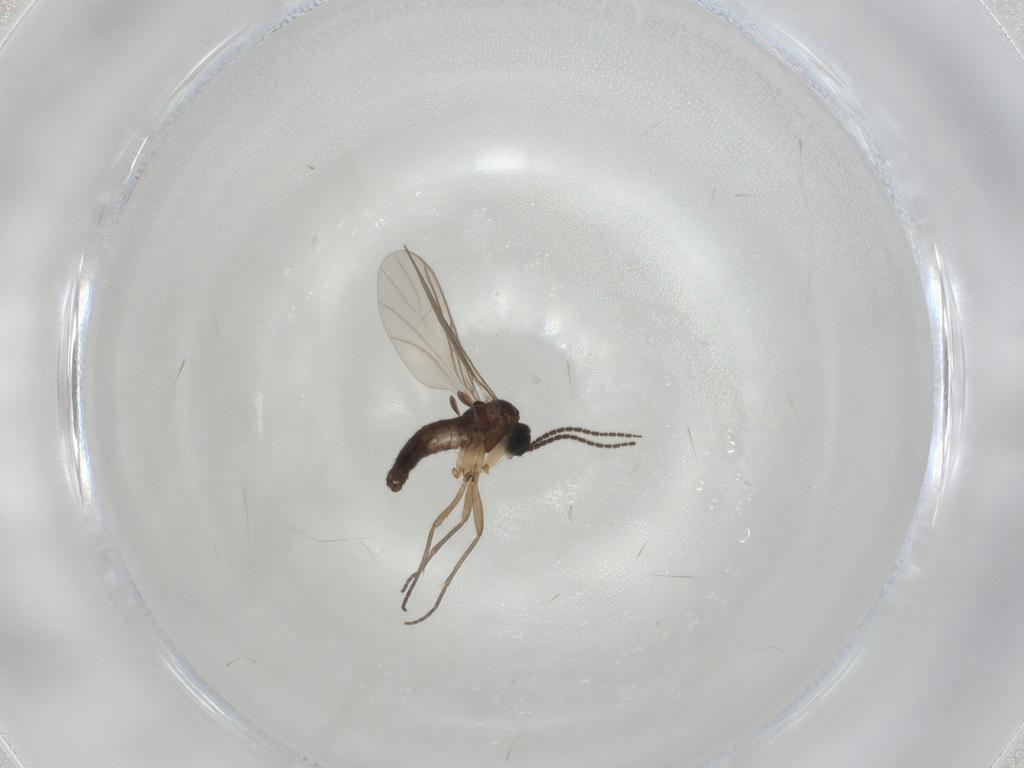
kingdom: Animalia
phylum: Arthropoda
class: Insecta
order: Diptera
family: Sciaridae
